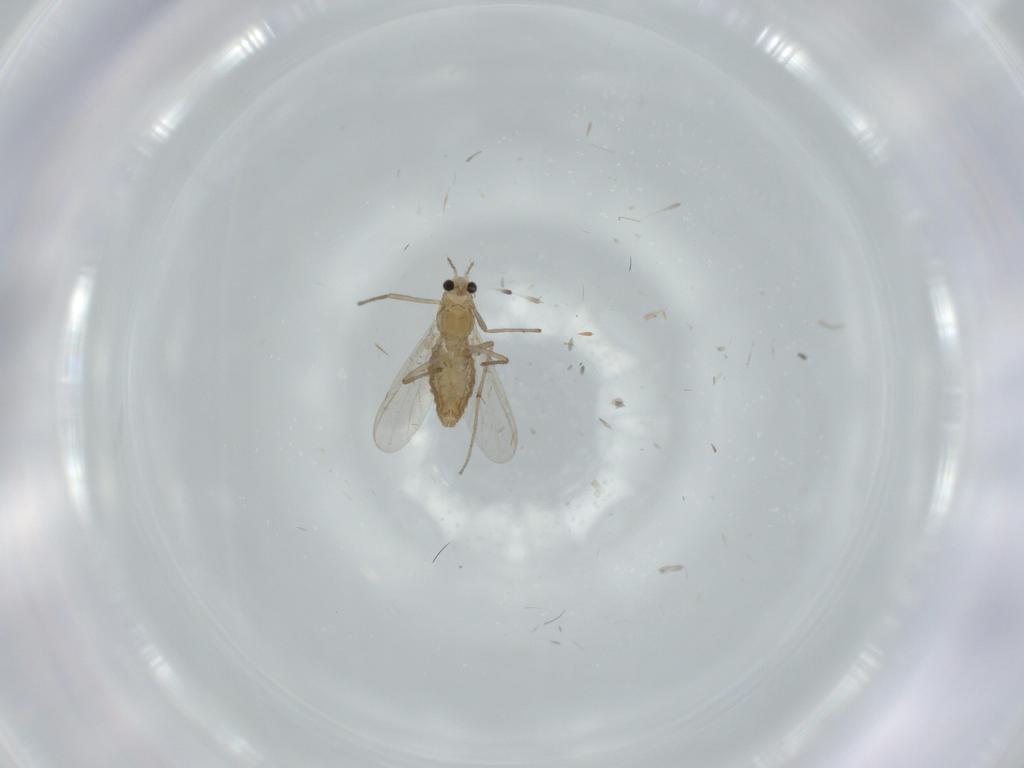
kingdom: Animalia
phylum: Arthropoda
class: Insecta
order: Diptera
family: Chironomidae
